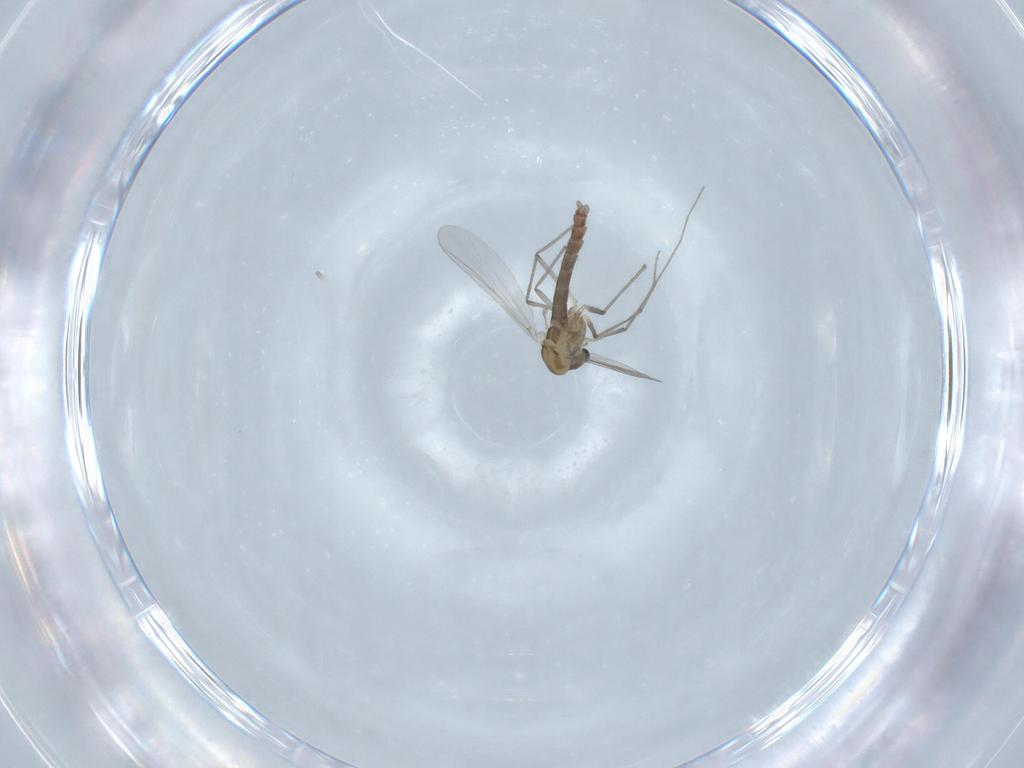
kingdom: Animalia
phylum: Arthropoda
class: Insecta
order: Diptera
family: Chironomidae
